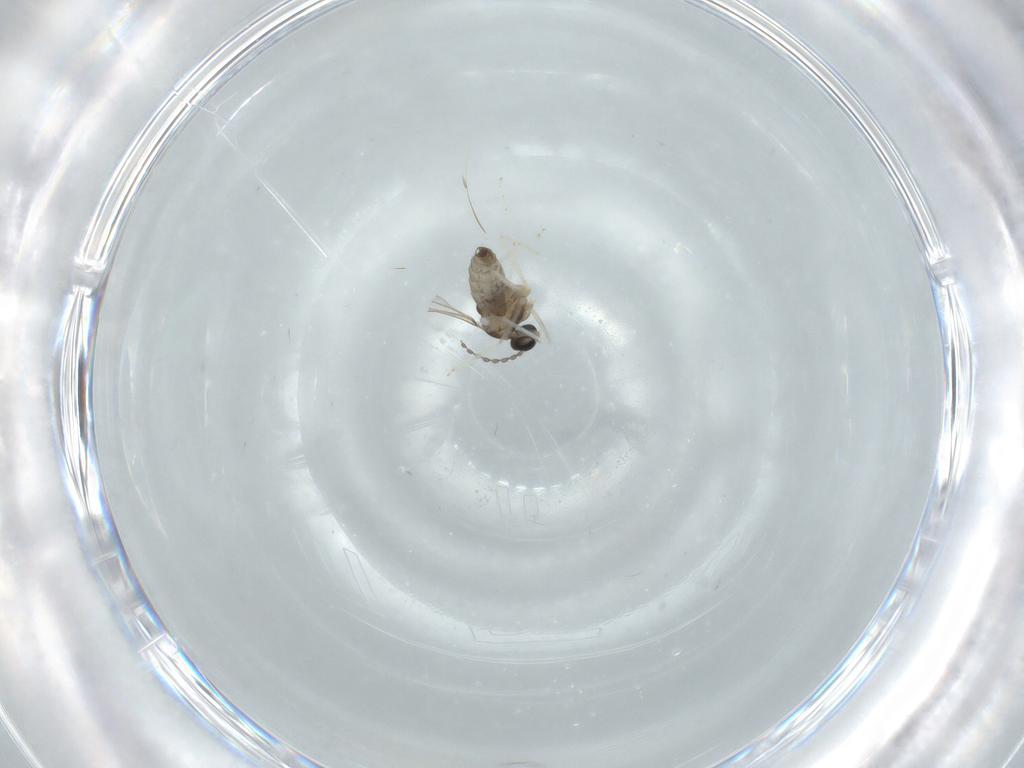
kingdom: Animalia
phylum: Arthropoda
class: Insecta
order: Diptera
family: Cecidomyiidae
